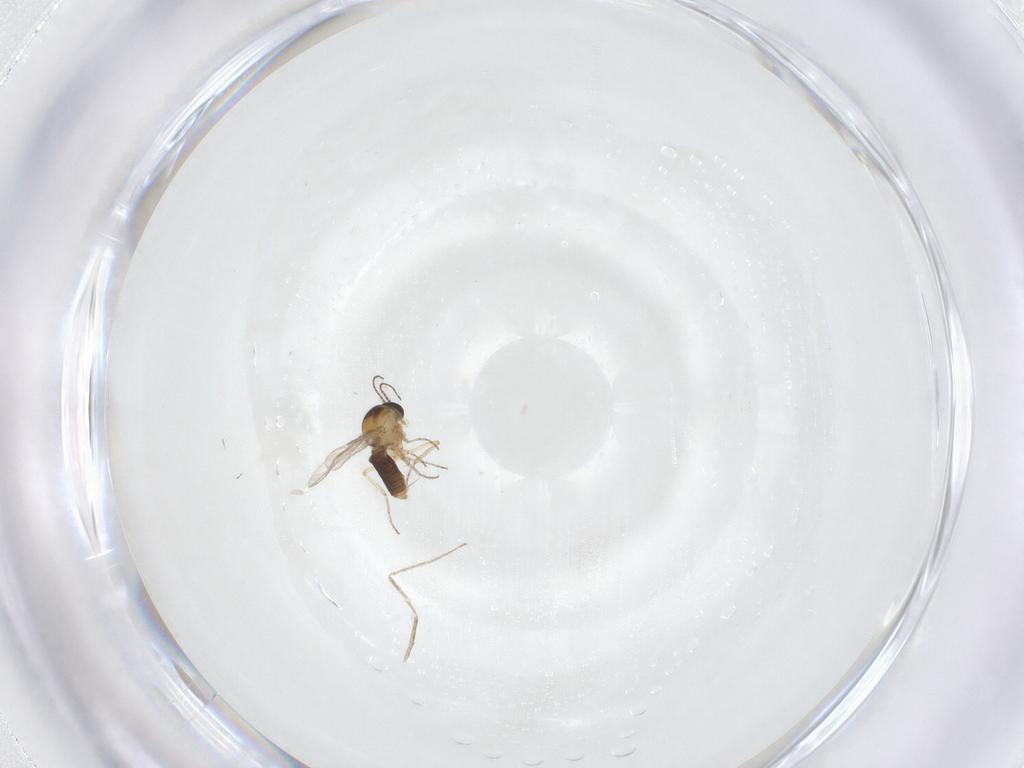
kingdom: Animalia
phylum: Arthropoda
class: Insecta
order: Diptera
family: Ceratopogonidae
